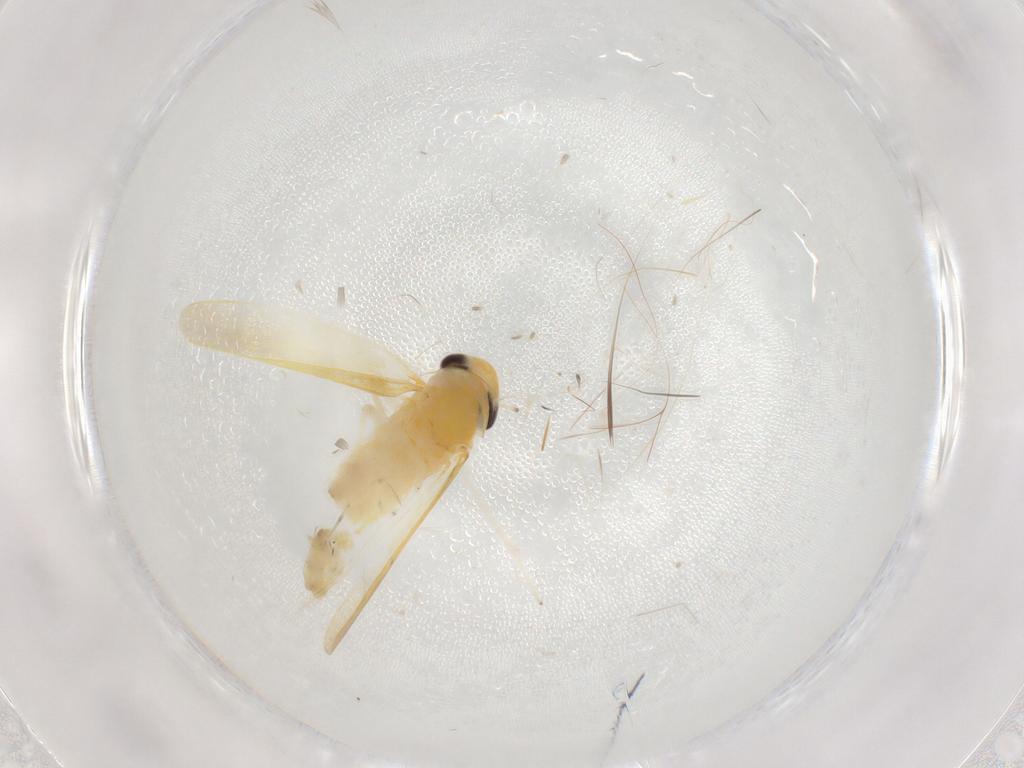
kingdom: Animalia
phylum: Arthropoda
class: Insecta
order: Hemiptera
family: Cicadellidae
